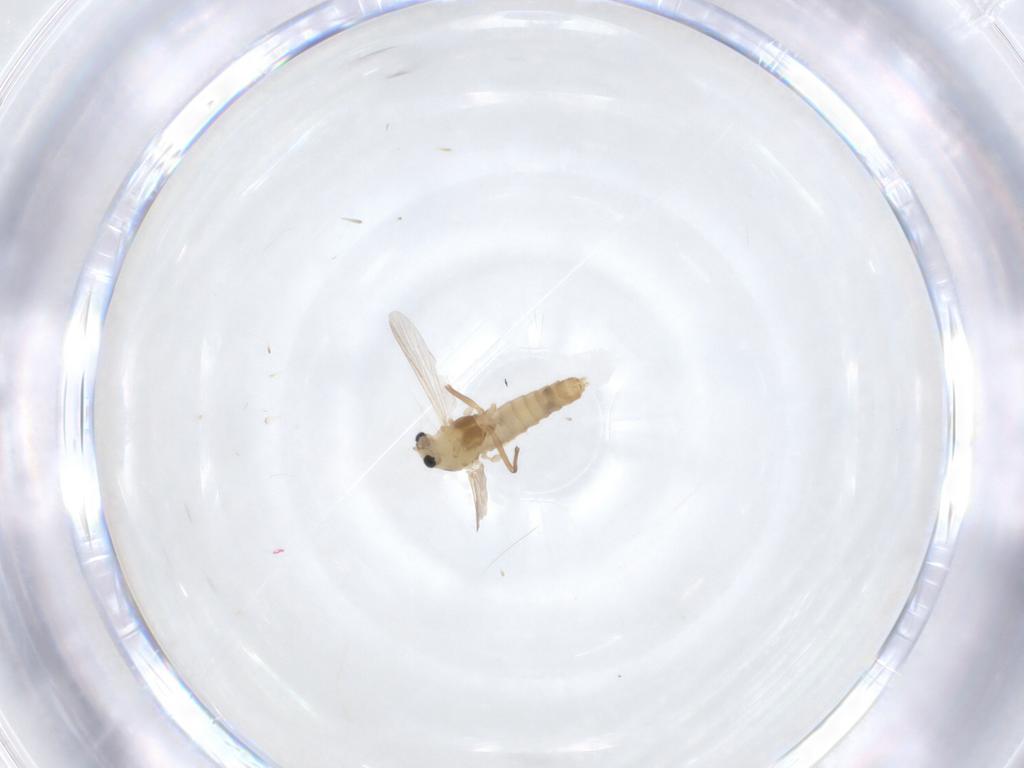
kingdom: Animalia
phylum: Arthropoda
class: Insecta
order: Diptera
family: Chironomidae
